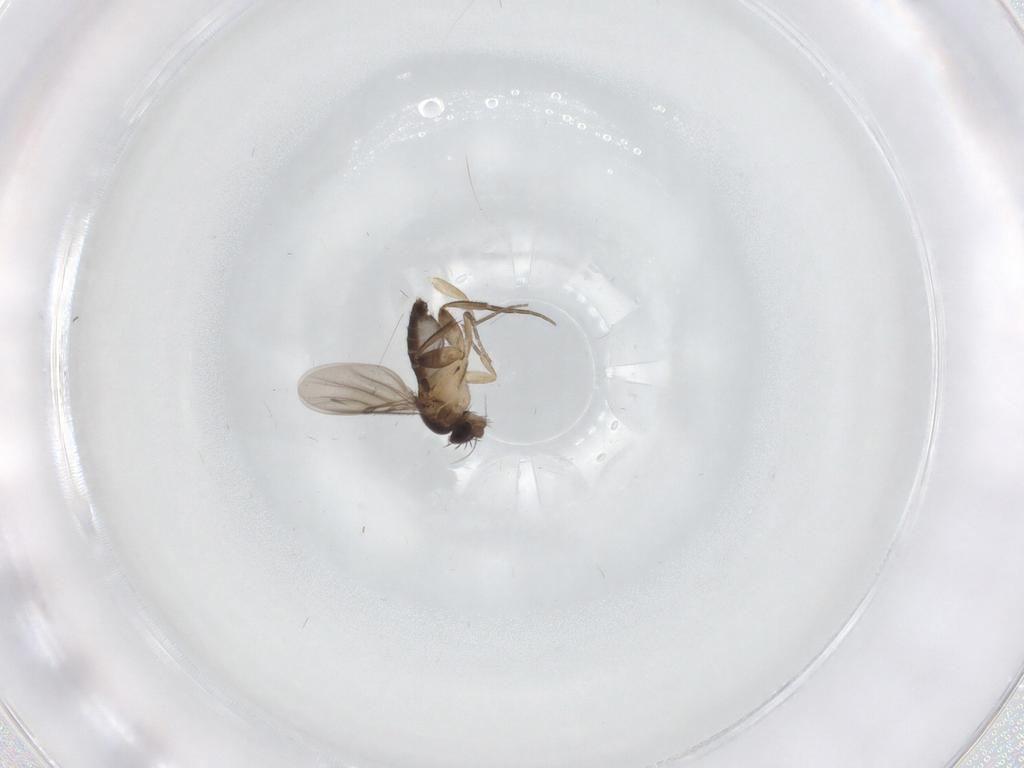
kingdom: Animalia
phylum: Arthropoda
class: Insecta
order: Diptera
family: Phoridae
